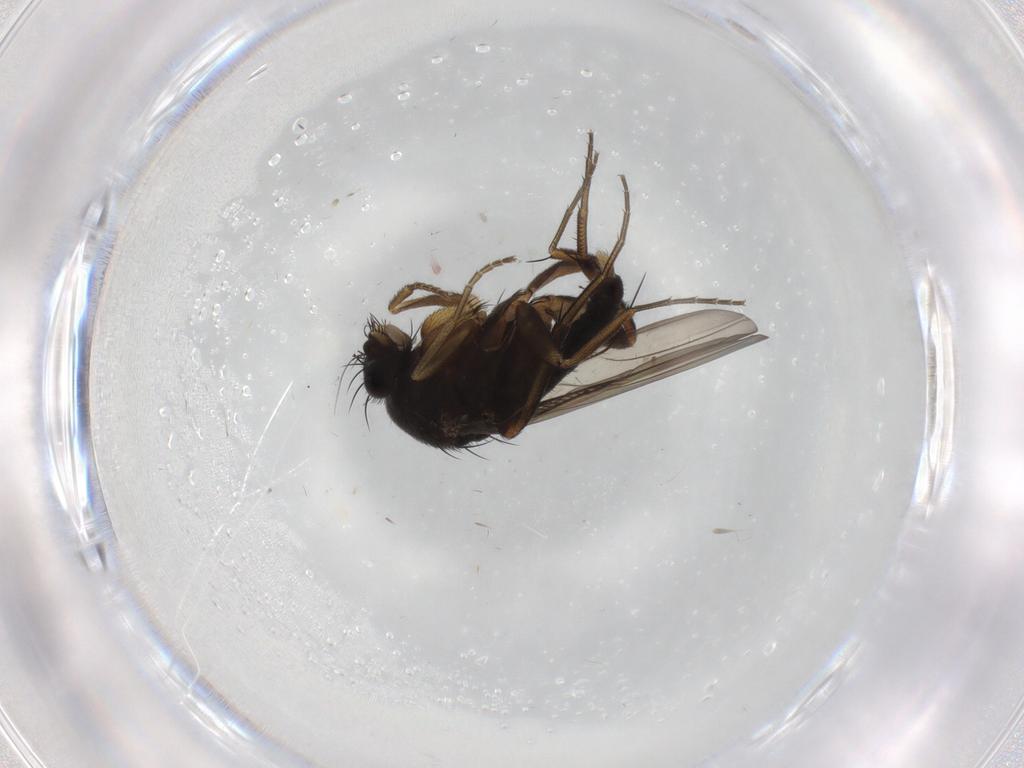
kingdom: Animalia
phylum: Arthropoda
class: Insecta
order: Diptera
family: Phoridae
